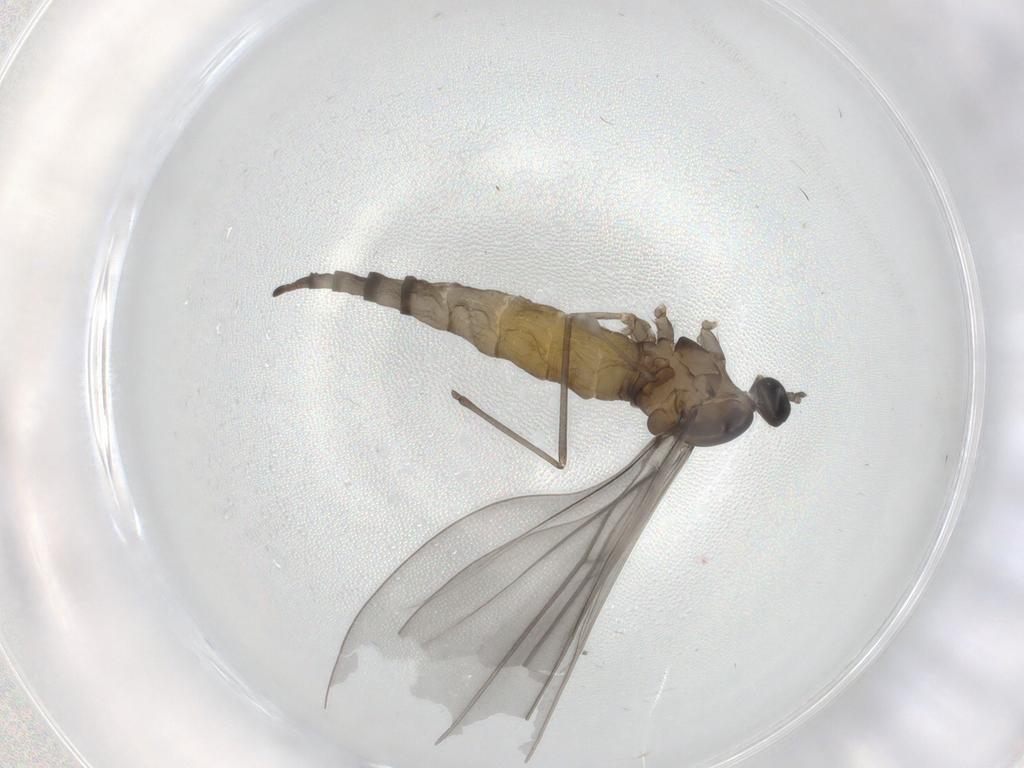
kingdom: Animalia
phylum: Arthropoda
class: Insecta
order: Diptera
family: Cecidomyiidae
